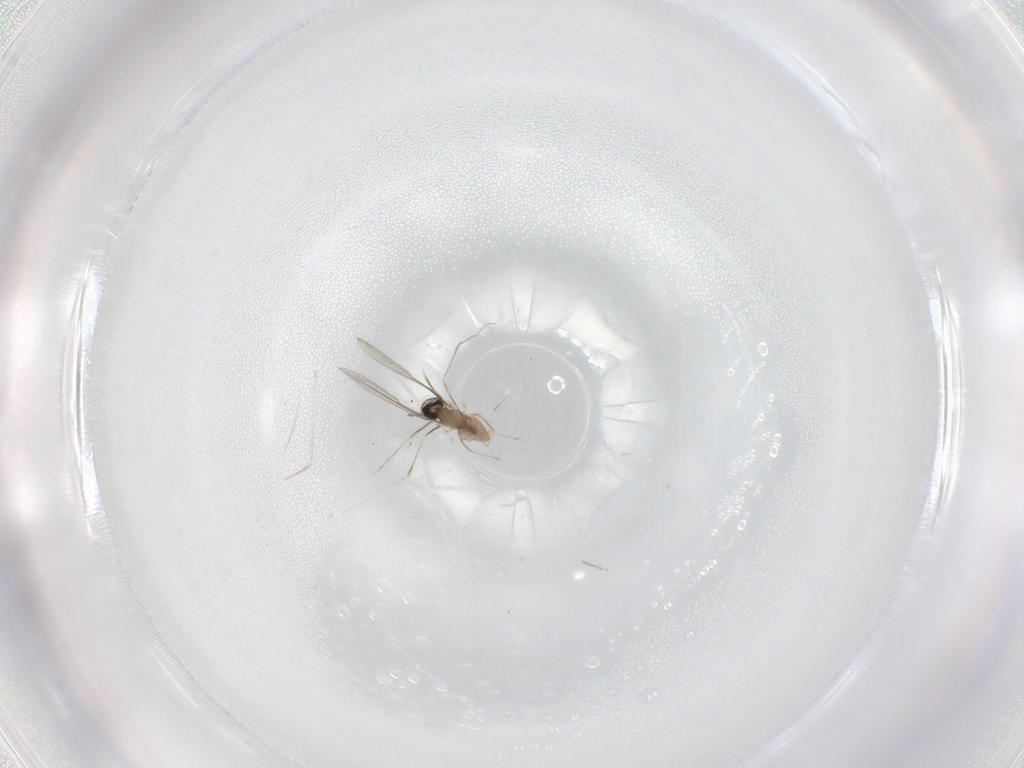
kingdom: Animalia
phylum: Arthropoda
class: Insecta
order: Diptera
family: Cecidomyiidae
